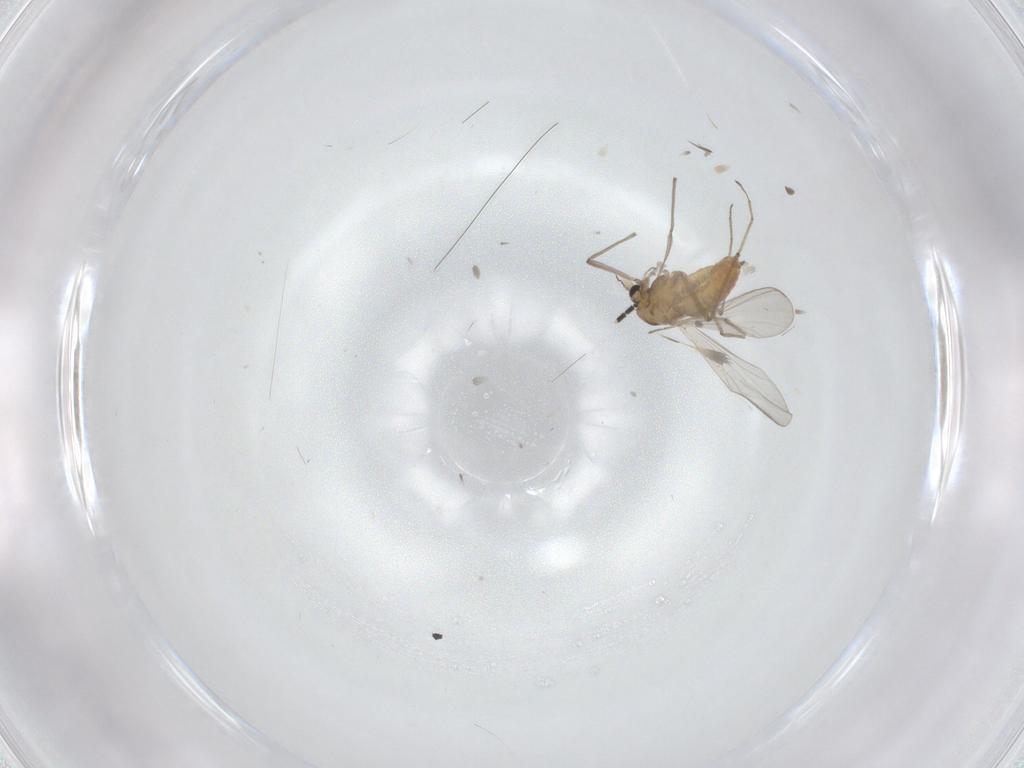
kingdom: Animalia
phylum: Arthropoda
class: Insecta
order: Diptera
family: Chironomidae
